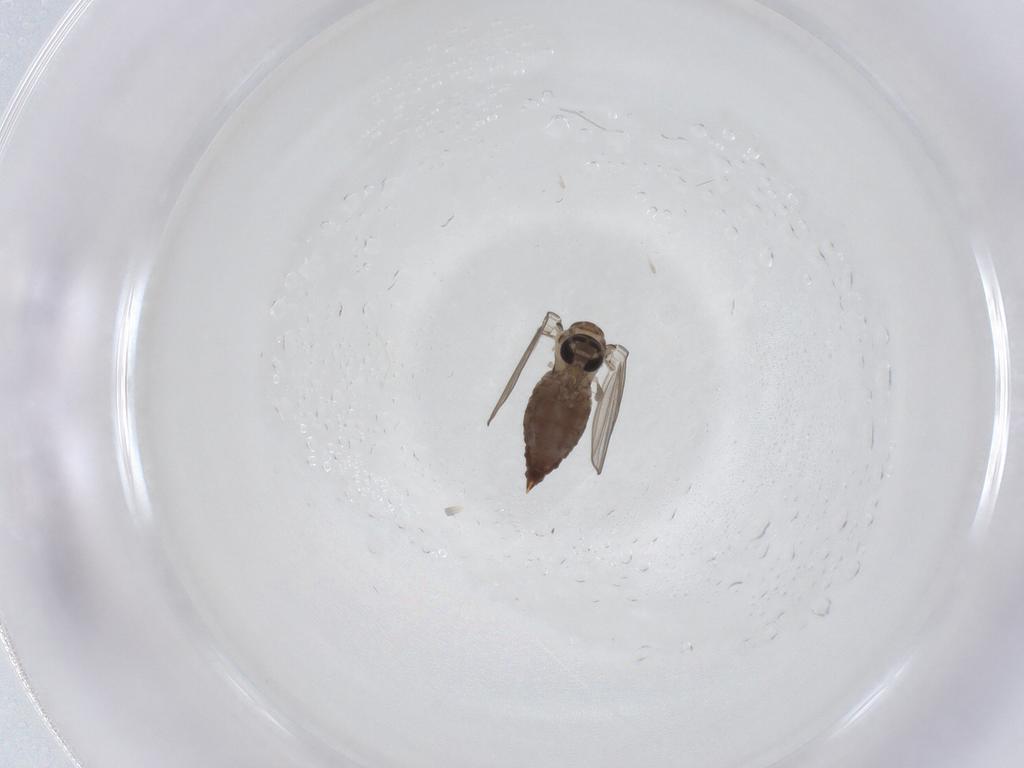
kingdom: Animalia
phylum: Arthropoda
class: Insecta
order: Diptera
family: Psychodidae
